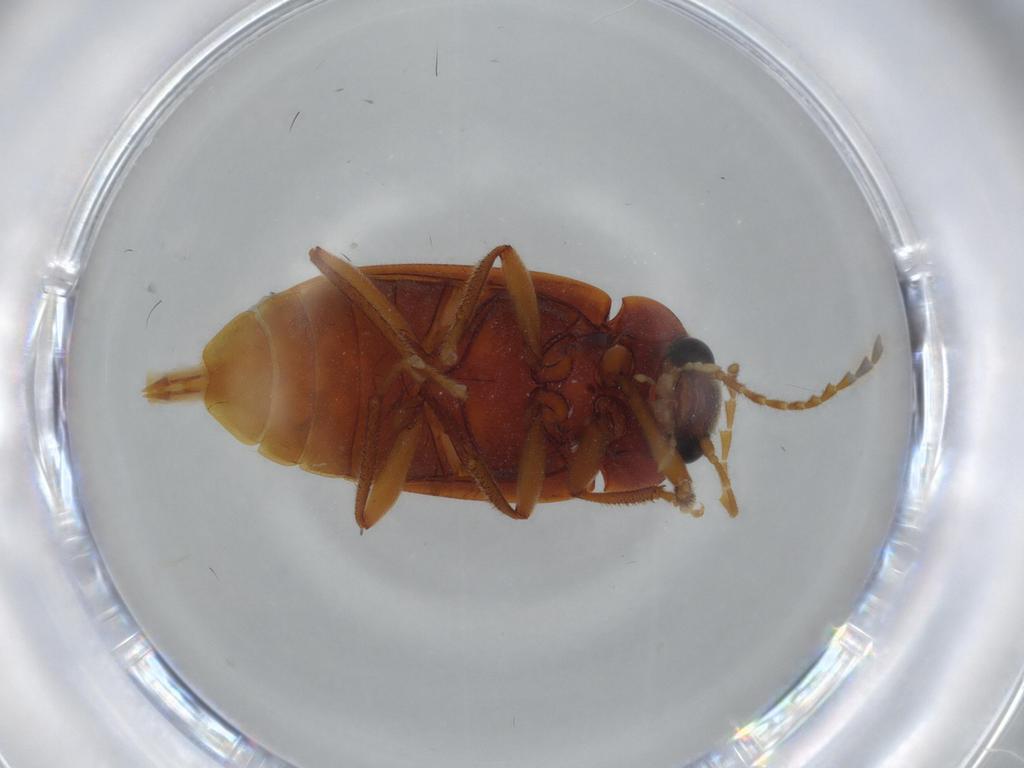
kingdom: Animalia
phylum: Arthropoda
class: Insecta
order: Coleoptera
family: Ptilodactylidae
